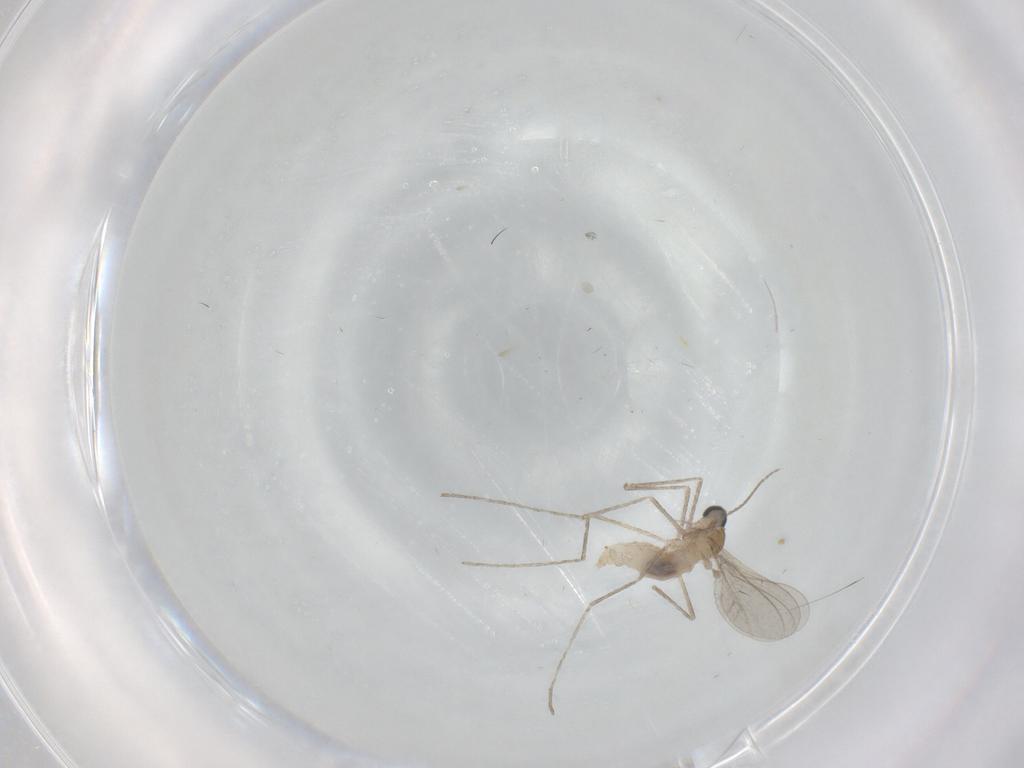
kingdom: Animalia
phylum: Arthropoda
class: Insecta
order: Diptera
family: Cecidomyiidae
